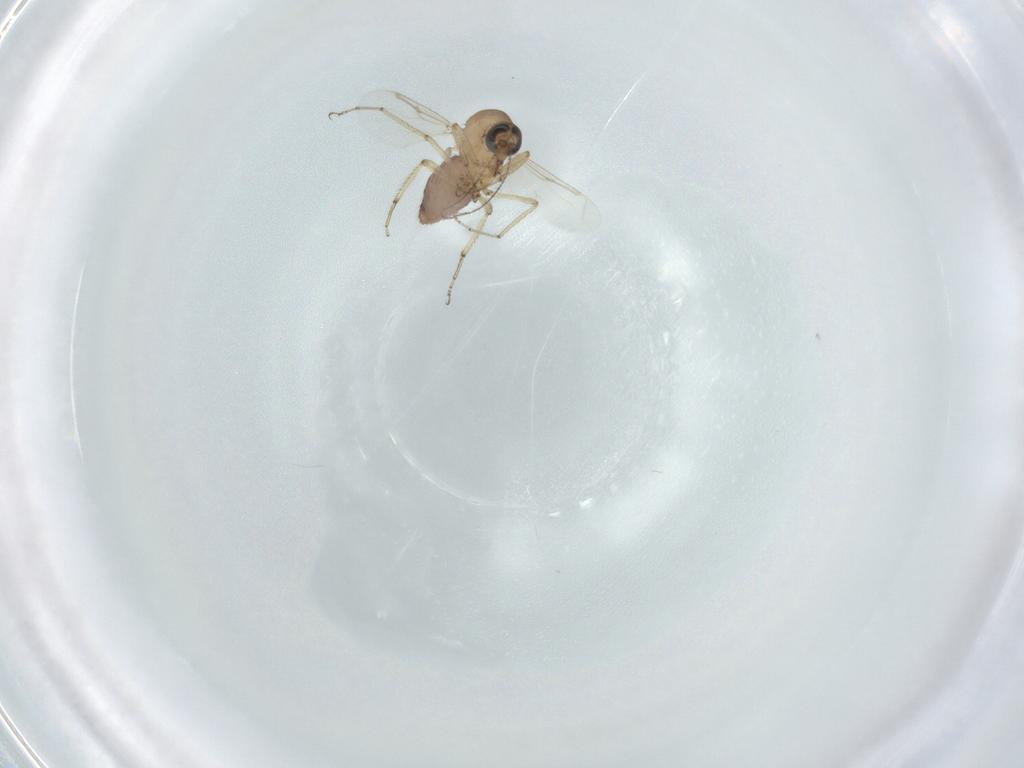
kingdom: Animalia
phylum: Arthropoda
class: Insecta
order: Diptera
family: Ceratopogonidae
